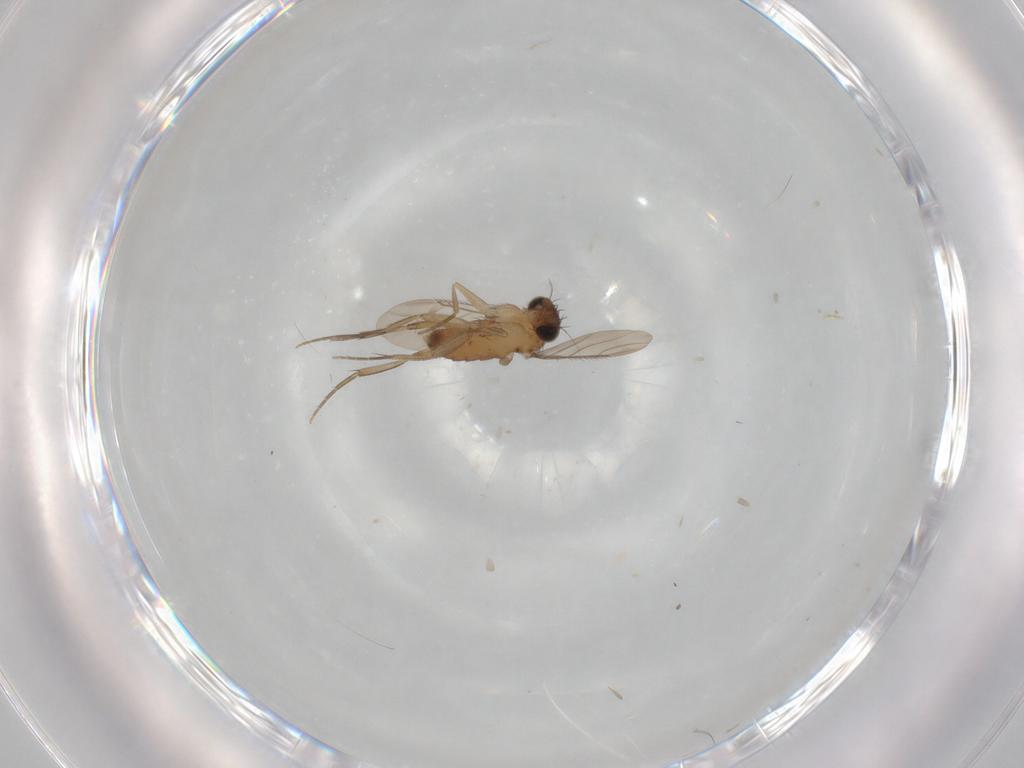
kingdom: Animalia
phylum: Arthropoda
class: Insecta
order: Diptera
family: Phoridae
